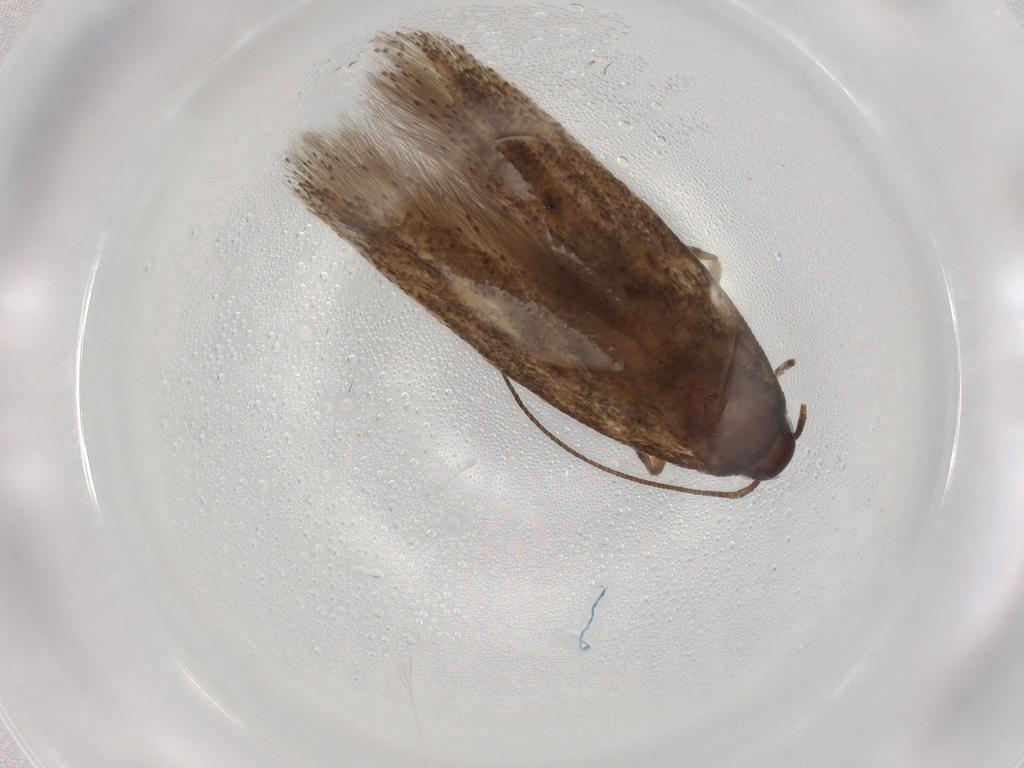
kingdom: Animalia
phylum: Arthropoda
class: Insecta
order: Lepidoptera
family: Gelechiidae
